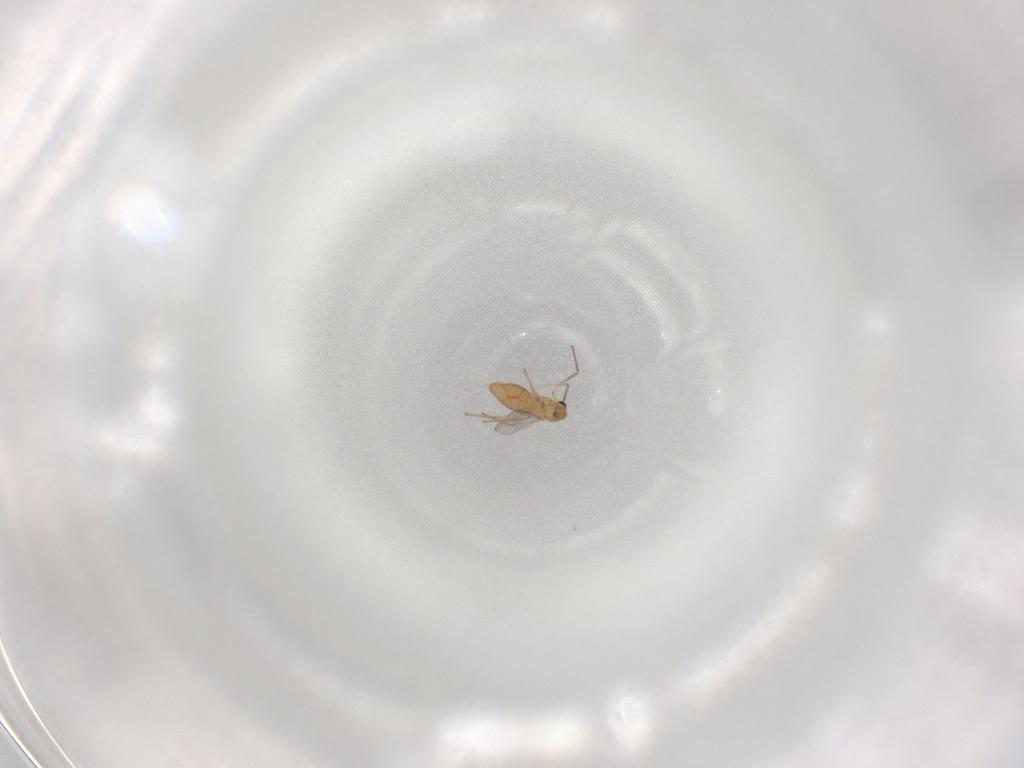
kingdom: Animalia
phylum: Arthropoda
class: Insecta
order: Diptera
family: Chironomidae
